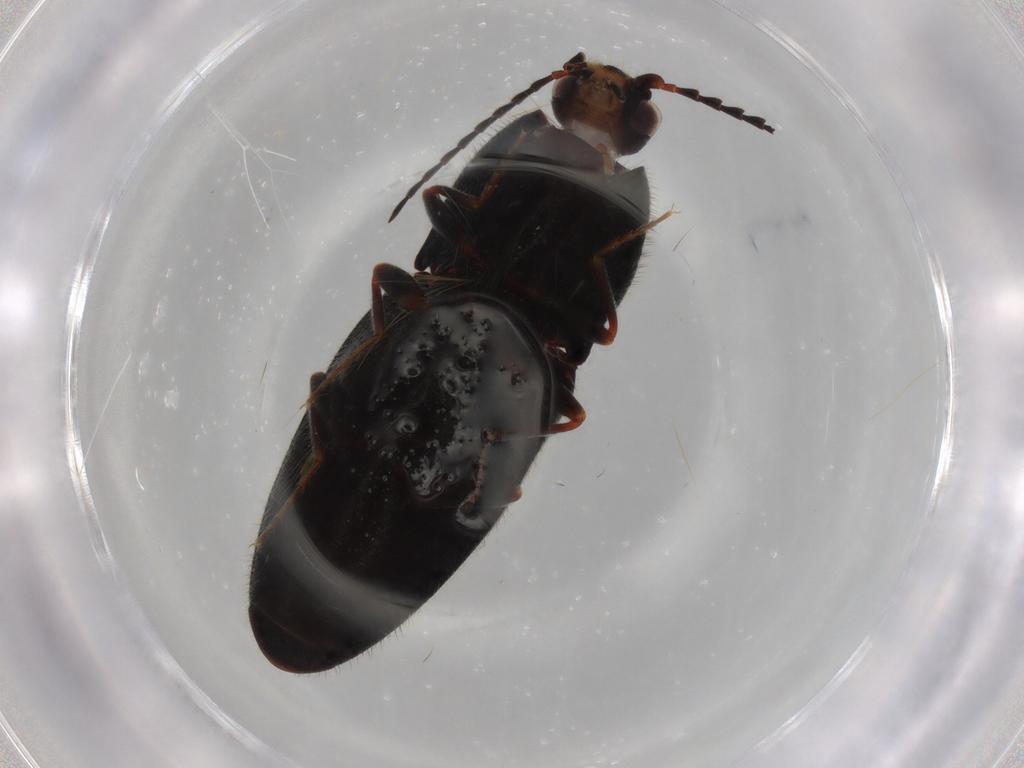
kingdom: Animalia
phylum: Arthropoda
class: Insecta
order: Coleoptera
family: Elateridae
